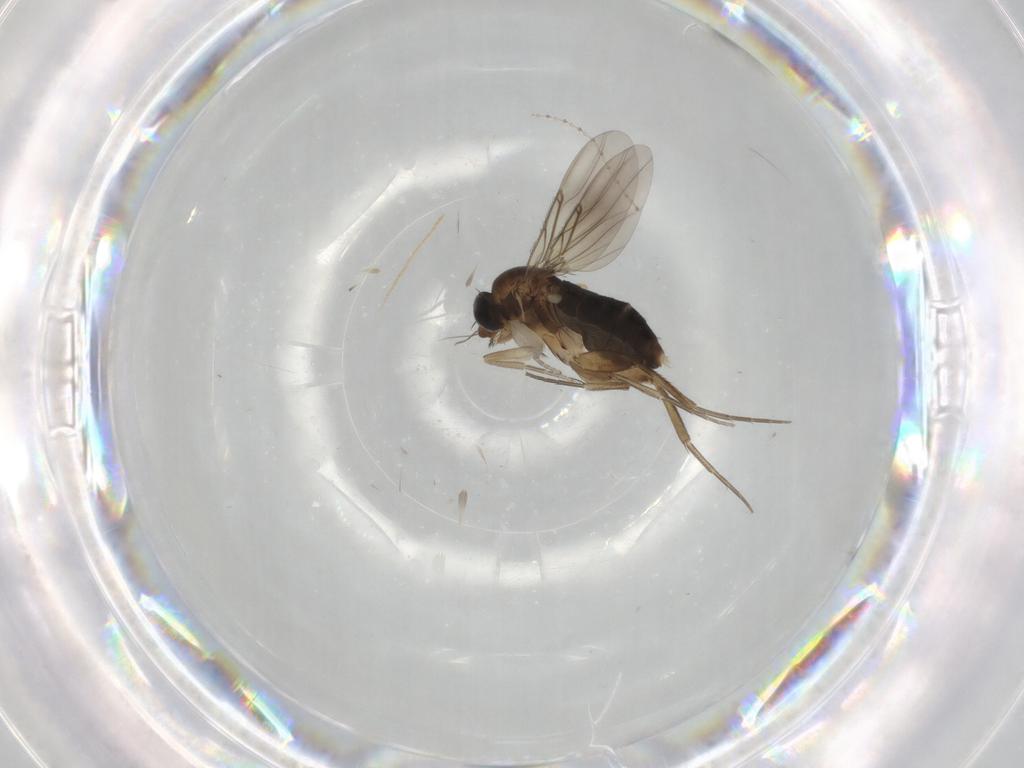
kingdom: Animalia
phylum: Arthropoda
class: Insecta
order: Diptera
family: Phoridae
